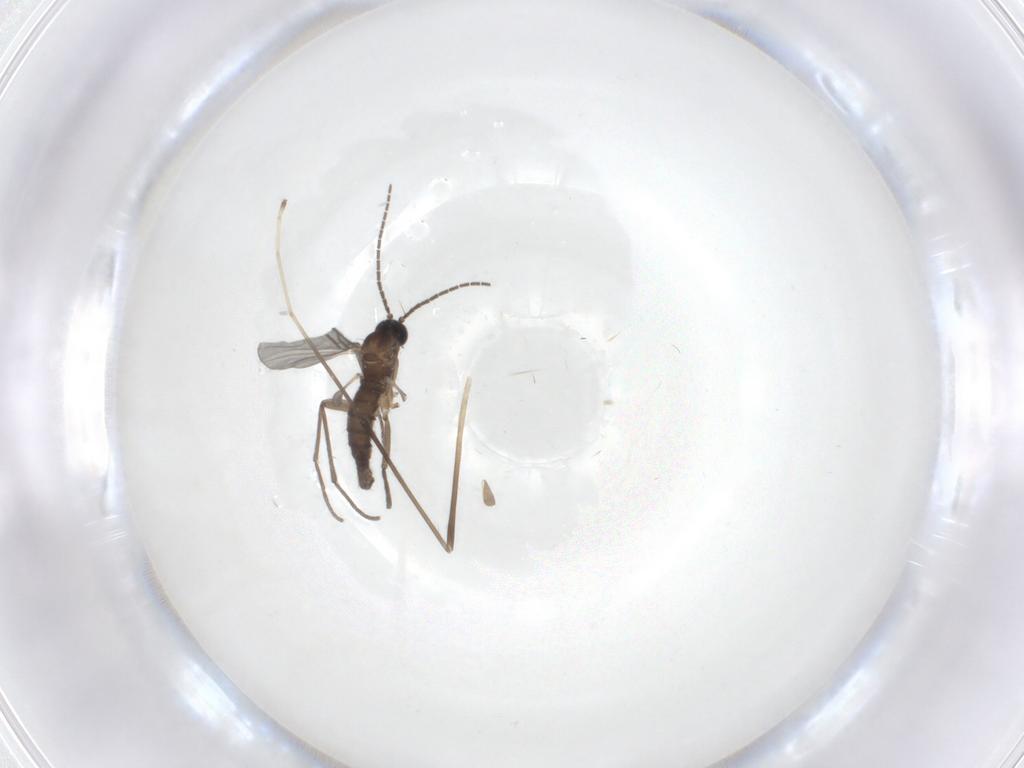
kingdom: Animalia
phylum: Arthropoda
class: Insecta
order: Diptera
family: Sciaridae
